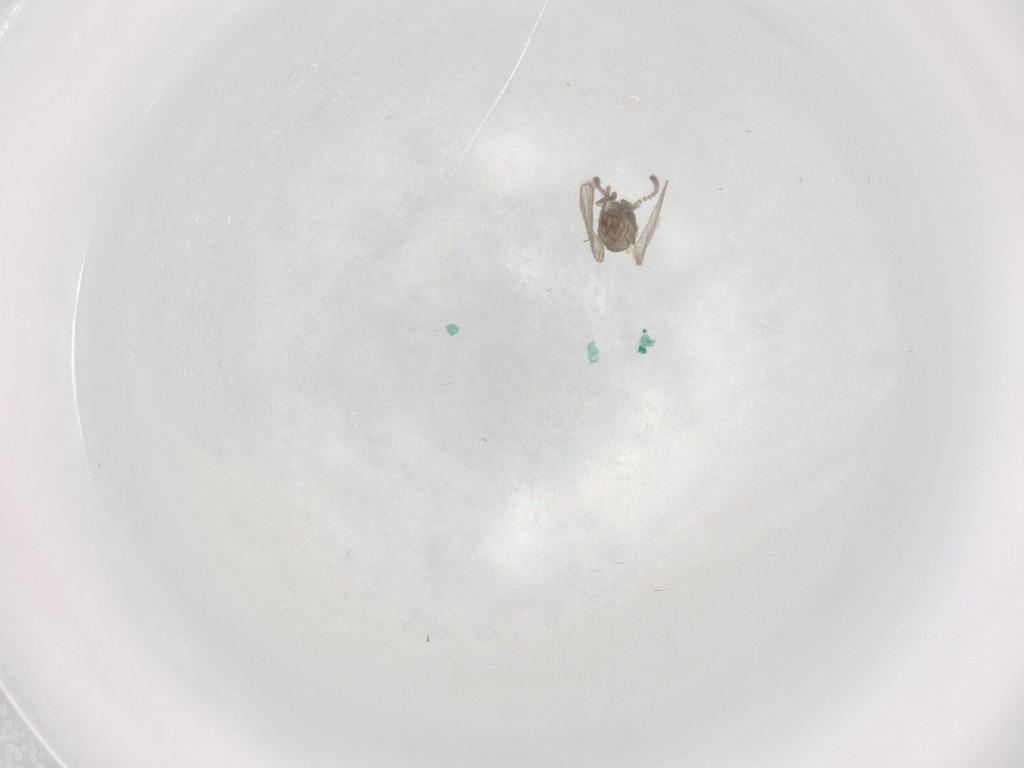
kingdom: Animalia
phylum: Arthropoda
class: Insecta
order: Diptera
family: Psychodidae
